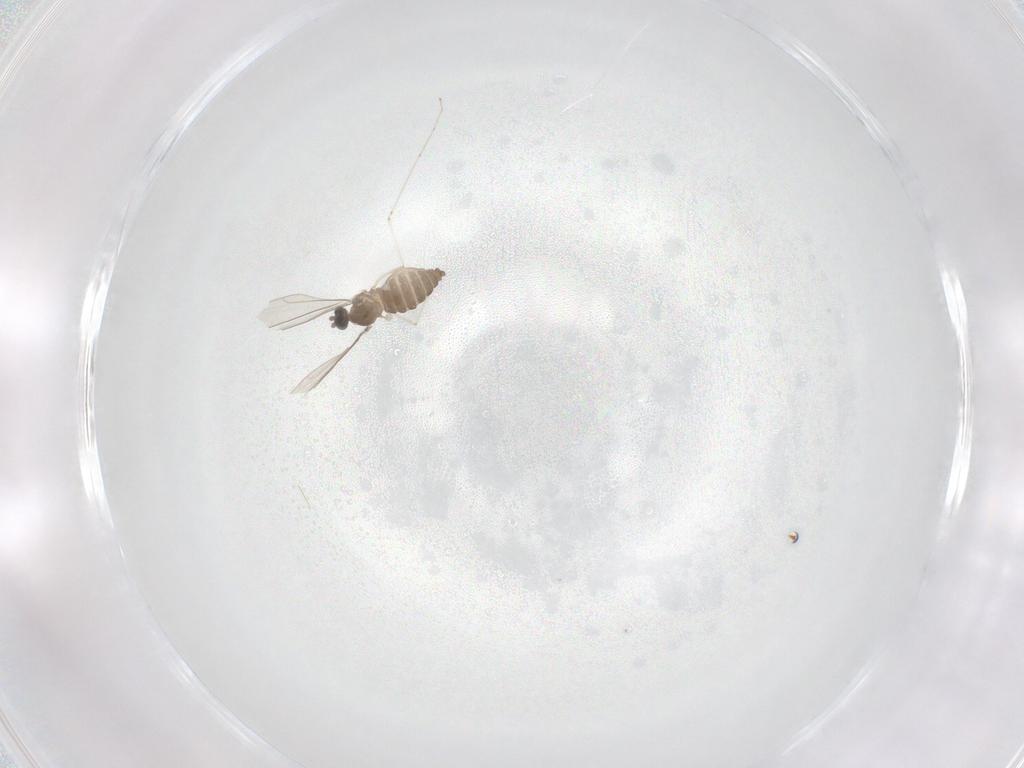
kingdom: Animalia
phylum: Arthropoda
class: Insecta
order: Diptera
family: Cecidomyiidae
